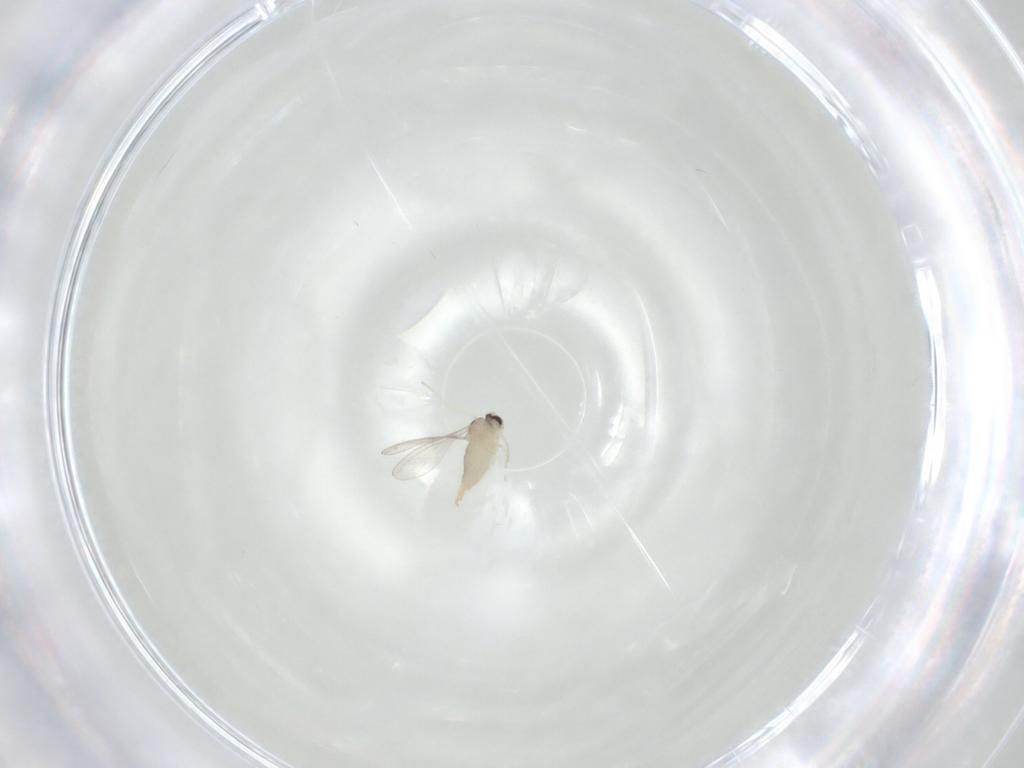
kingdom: Animalia
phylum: Arthropoda
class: Insecta
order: Diptera
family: Cecidomyiidae
